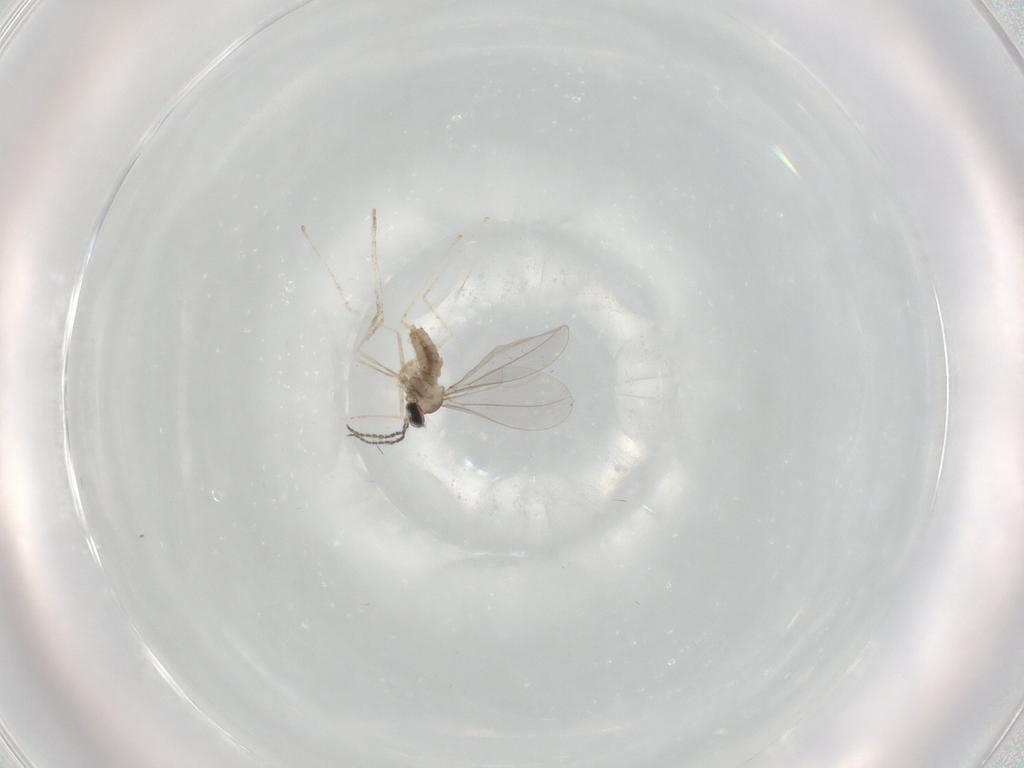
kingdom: Animalia
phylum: Arthropoda
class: Insecta
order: Diptera
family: Cecidomyiidae
